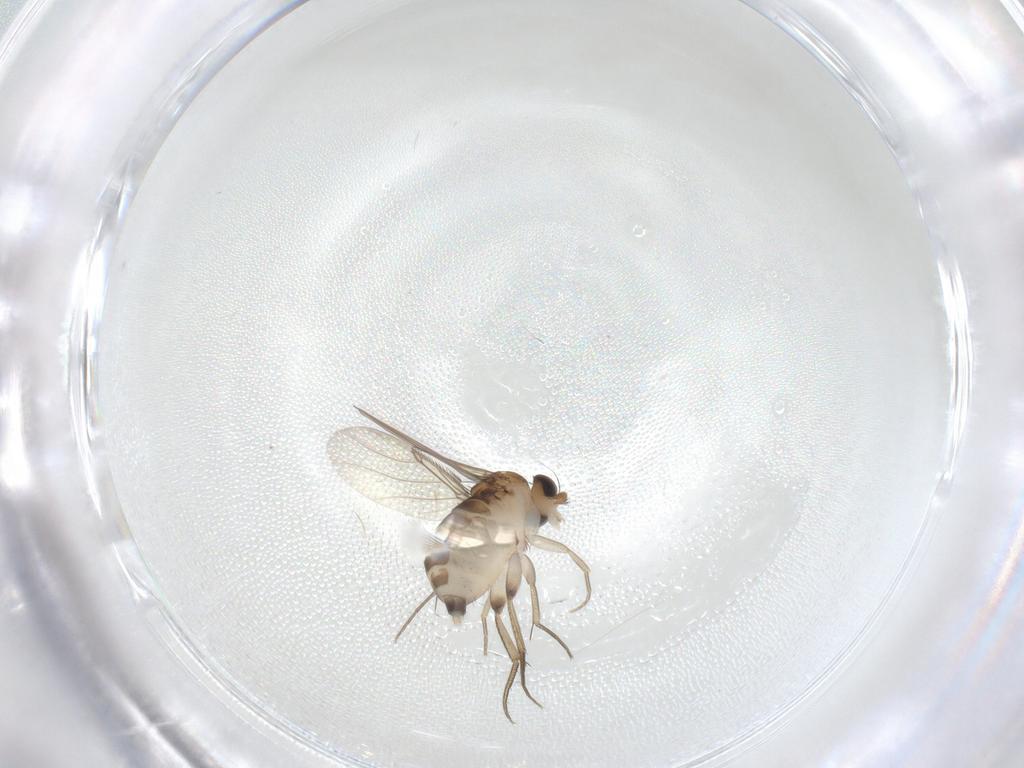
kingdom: Animalia
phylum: Arthropoda
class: Insecta
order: Diptera
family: Phoridae
